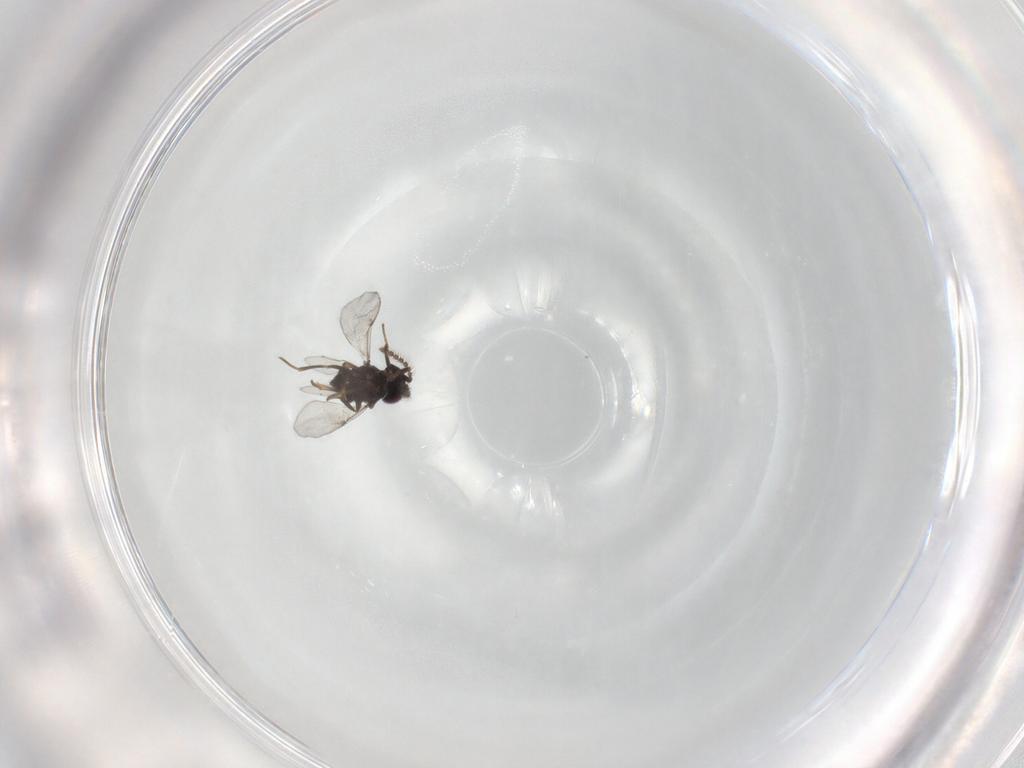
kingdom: Animalia
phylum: Arthropoda
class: Insecta
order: Hymenoptera
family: Encyrtidae
